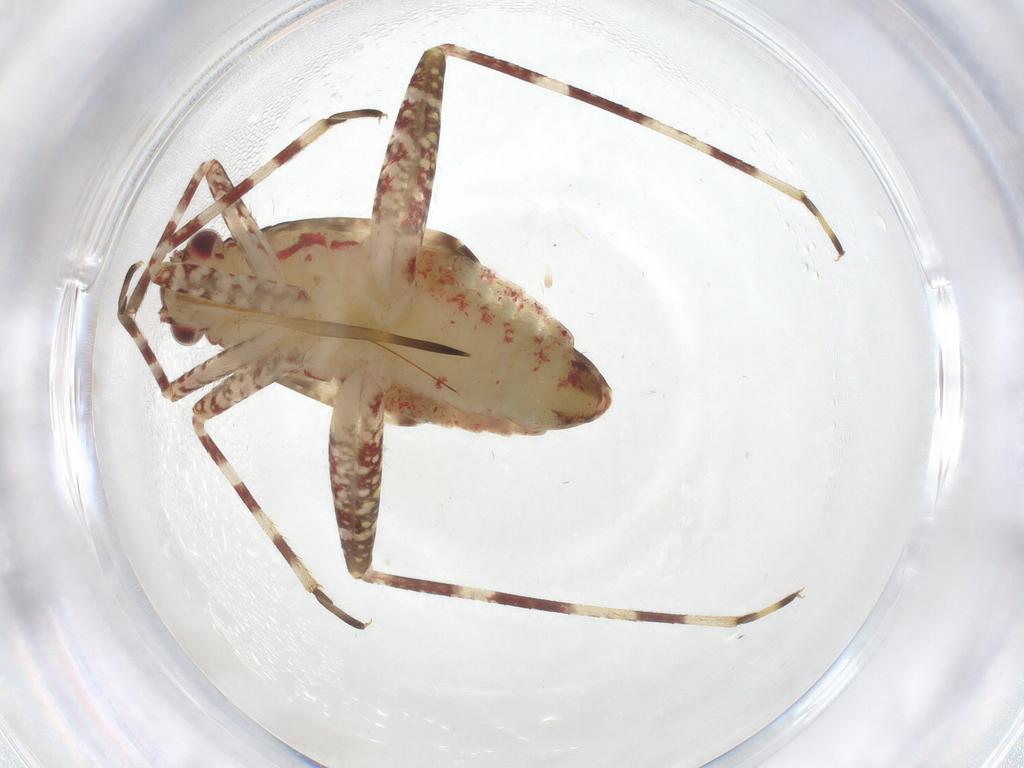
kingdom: Animalia
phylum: Arthropoda
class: Insecta
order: Hemiptera
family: Miridae
